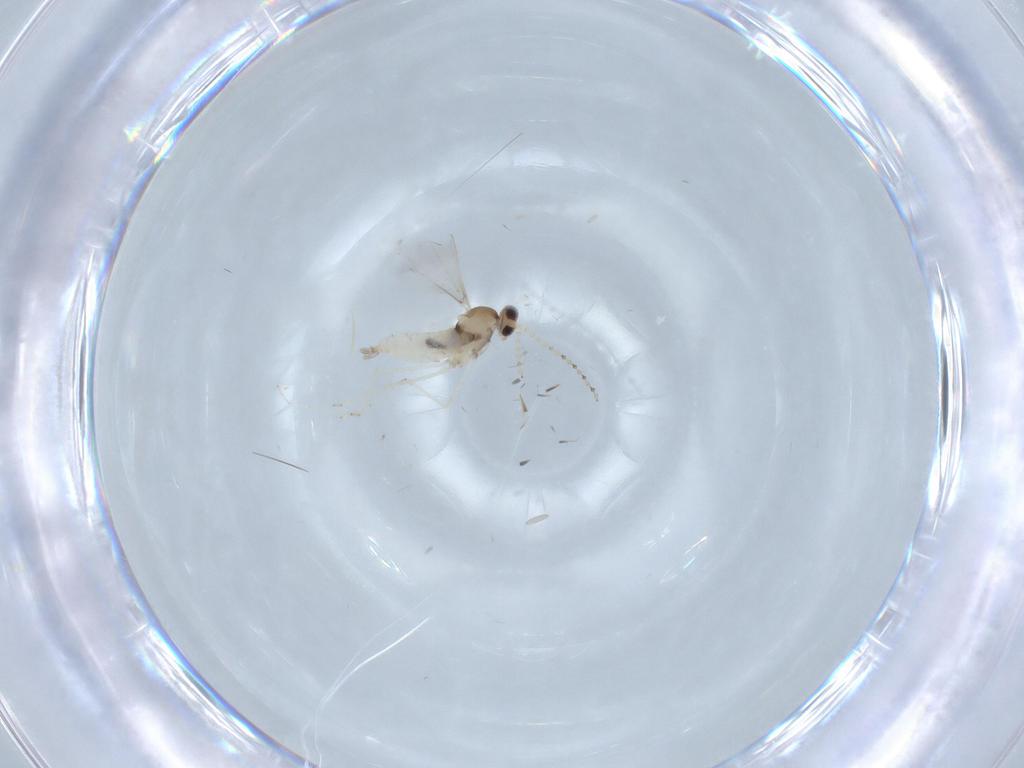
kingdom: Animalia
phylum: Arthropoda
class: Insecta
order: Diptera
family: Cecidomyiidae
